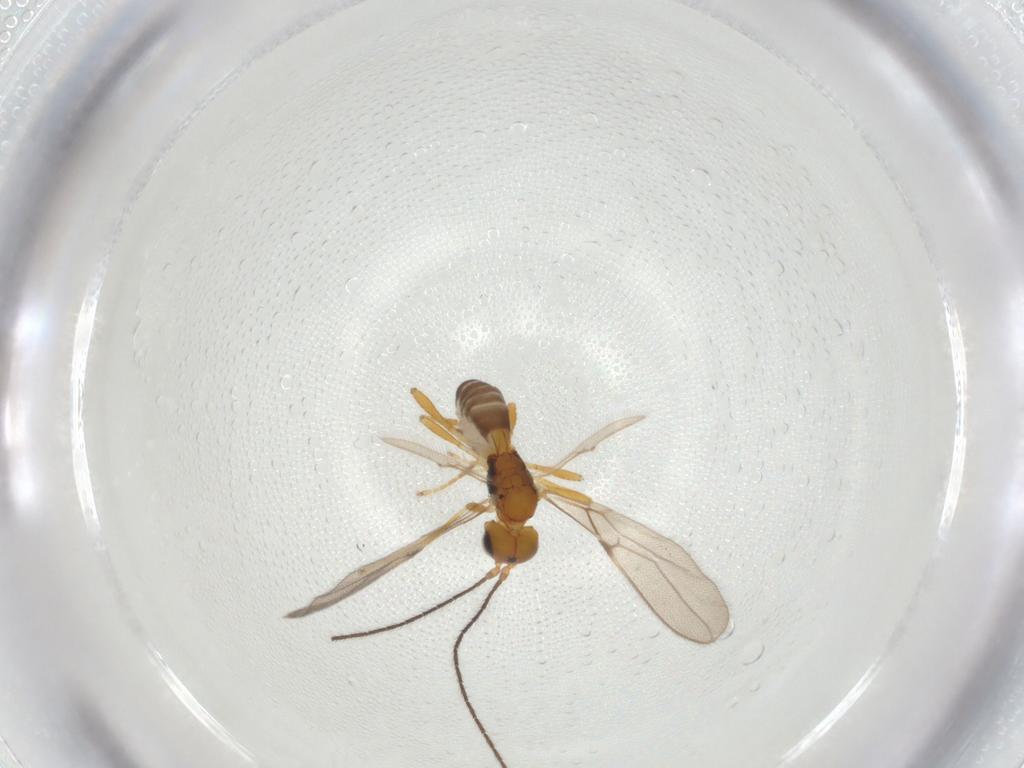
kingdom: Animalia
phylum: Arthropoda
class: Insecta
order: Hymenoptera
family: Braconidae
